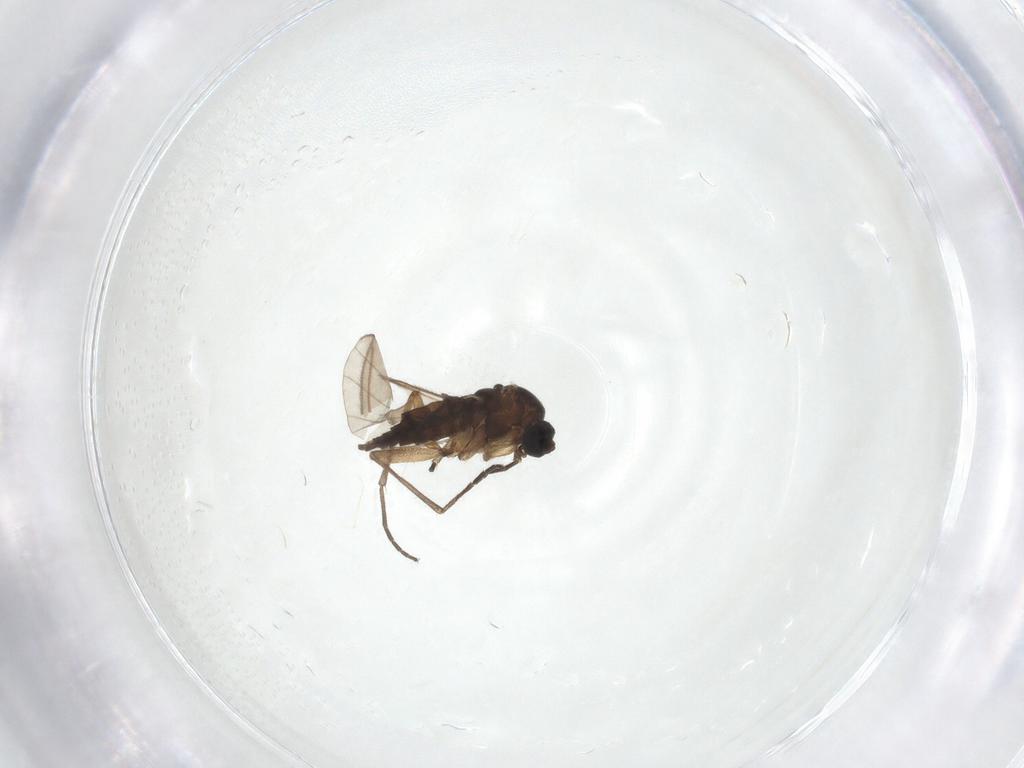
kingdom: Animalia
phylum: Arthropoda
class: Insecta
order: Diptera
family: Sciaridae
